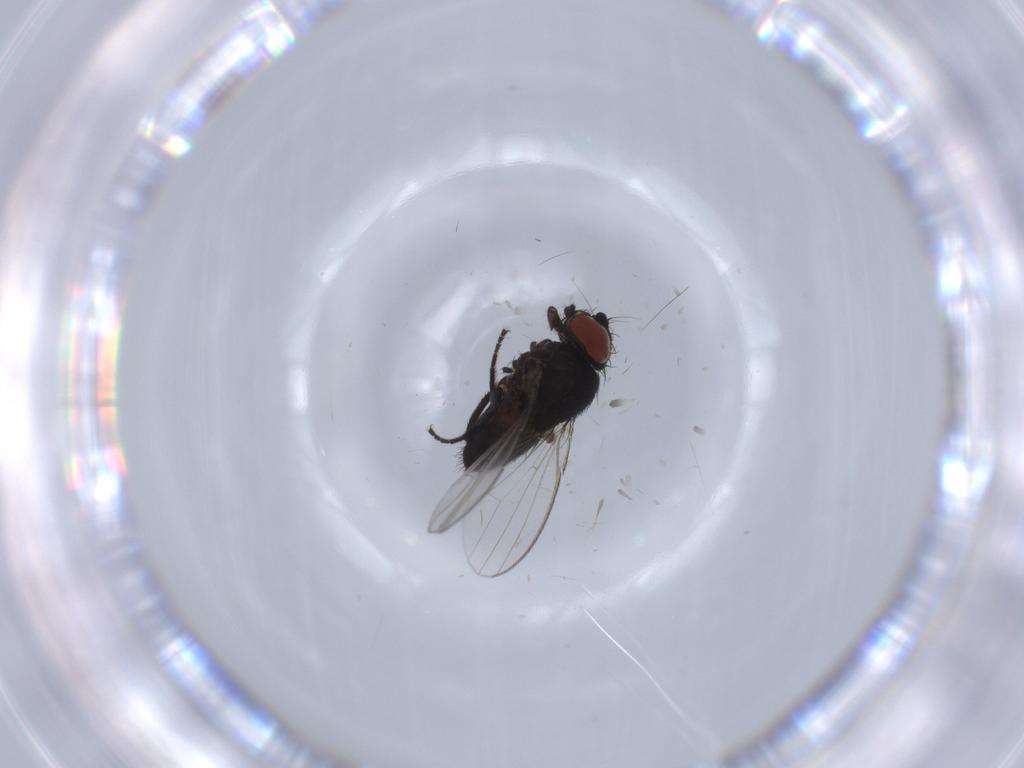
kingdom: Animalia
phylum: Arthropoda
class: Insecta
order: Diptera
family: Milichiidae
